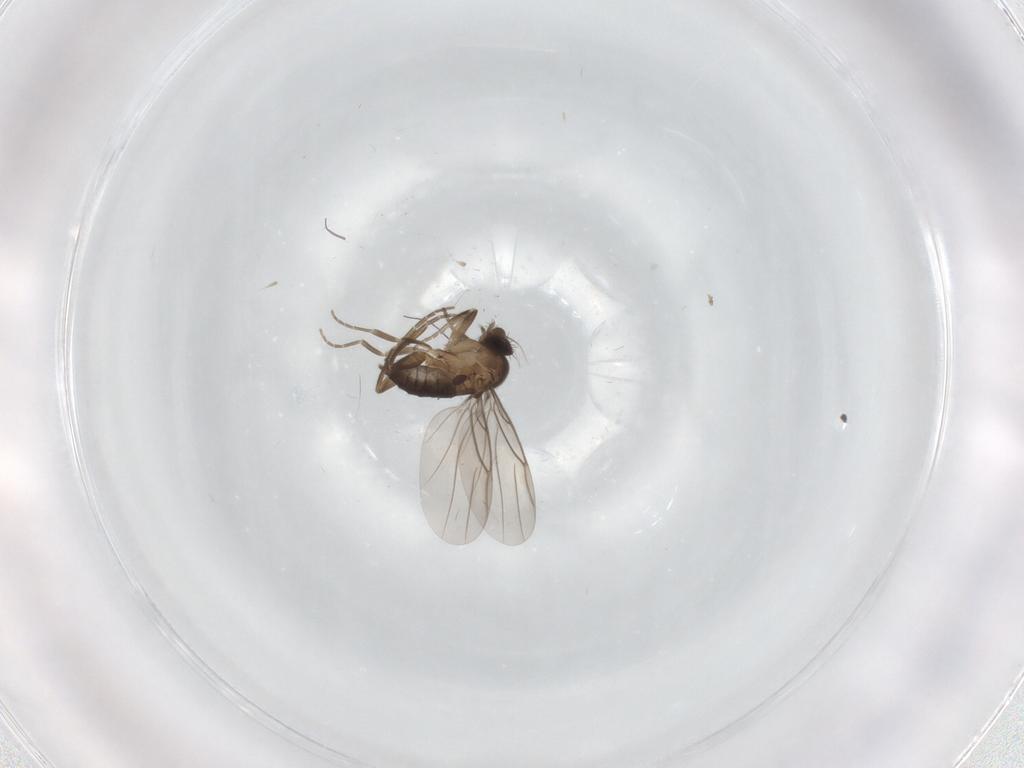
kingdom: Animalia
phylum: Arthropoda
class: Insecta
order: Diptera
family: Phoridae
